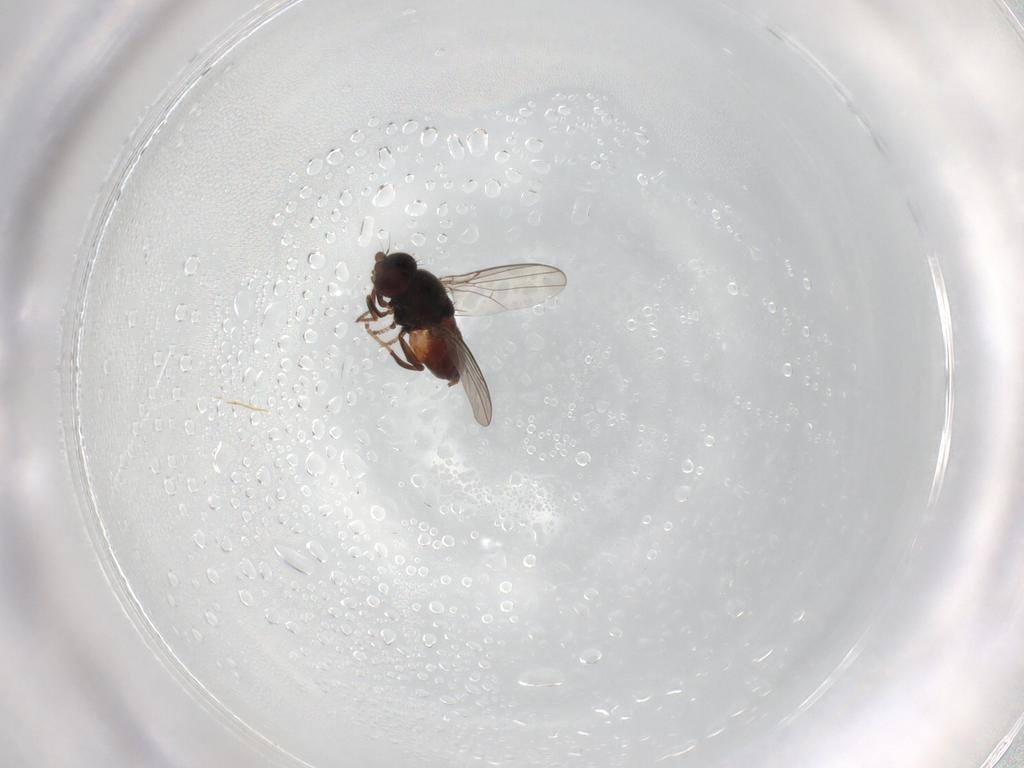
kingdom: Animalia
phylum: Arthropoda
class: Insecta
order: Diptera
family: Chloropidae
